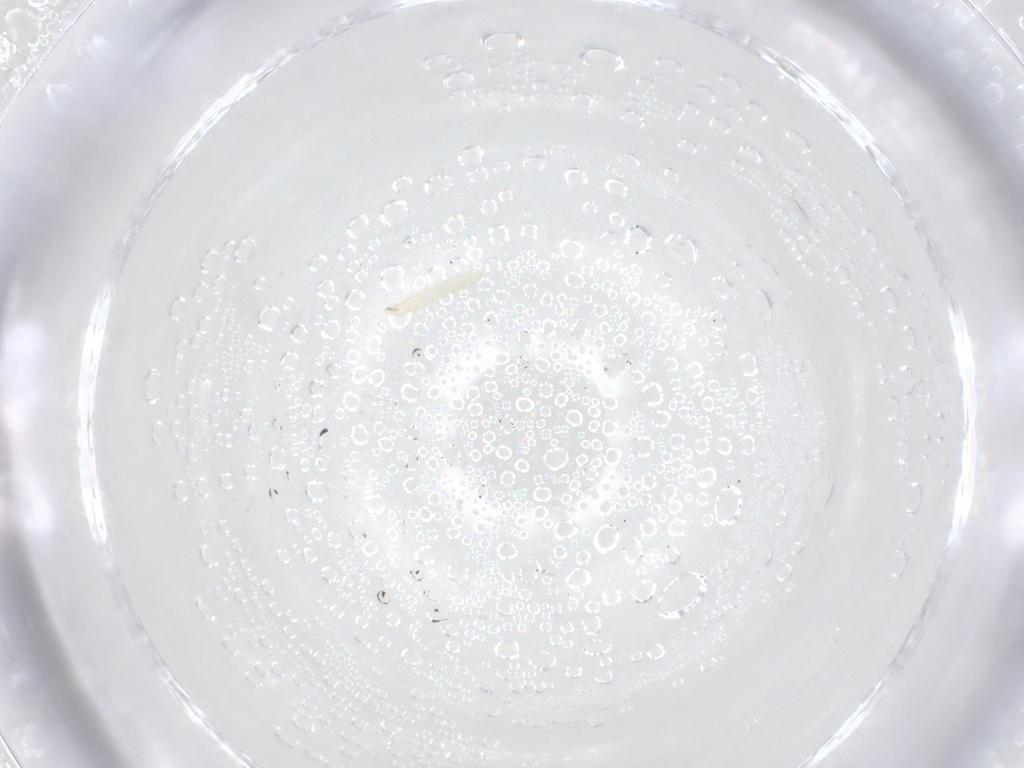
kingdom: Animalia
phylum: Arthropoda
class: Insecta
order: Diptera
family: Tachinidae
